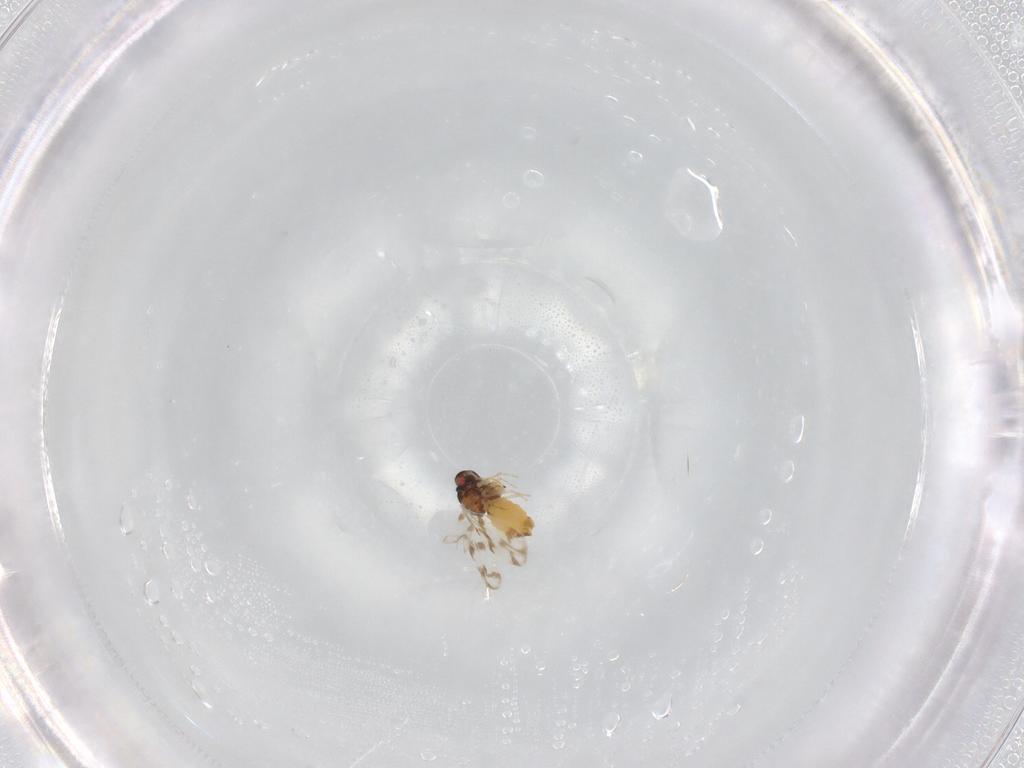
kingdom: Animalia
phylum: Arthropoda
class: Insecta
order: Hemiptera
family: Aleyrodidae
